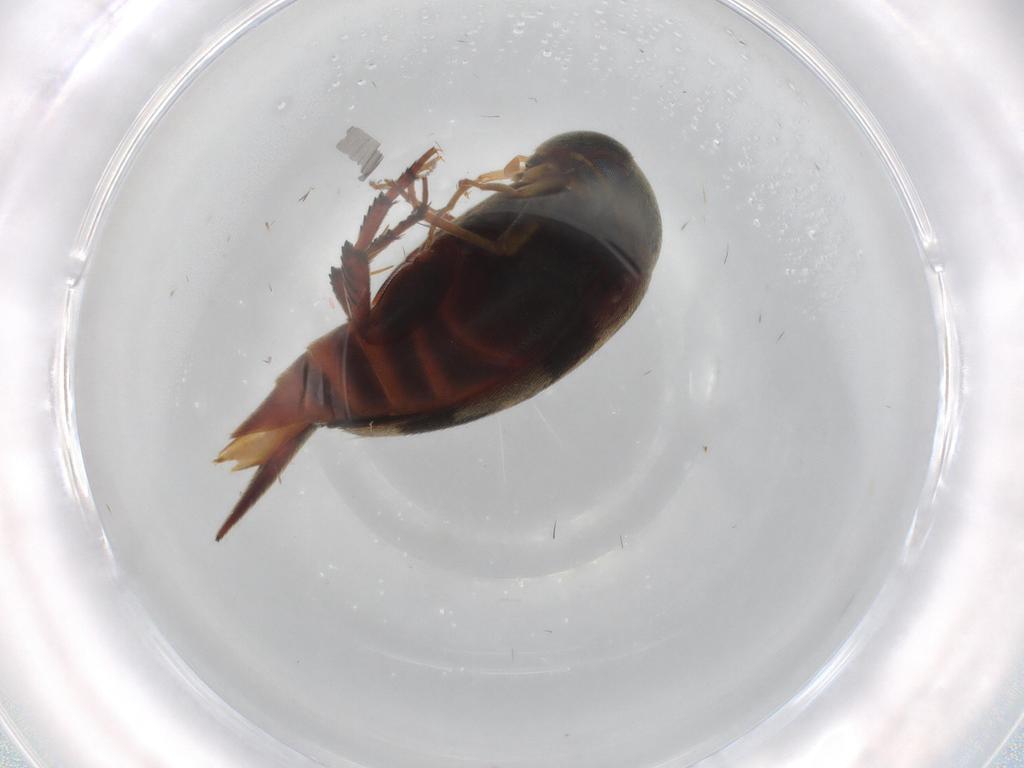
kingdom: Animalia
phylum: Arthropoda
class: Insecta
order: Coleoptera
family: Mordellidae
